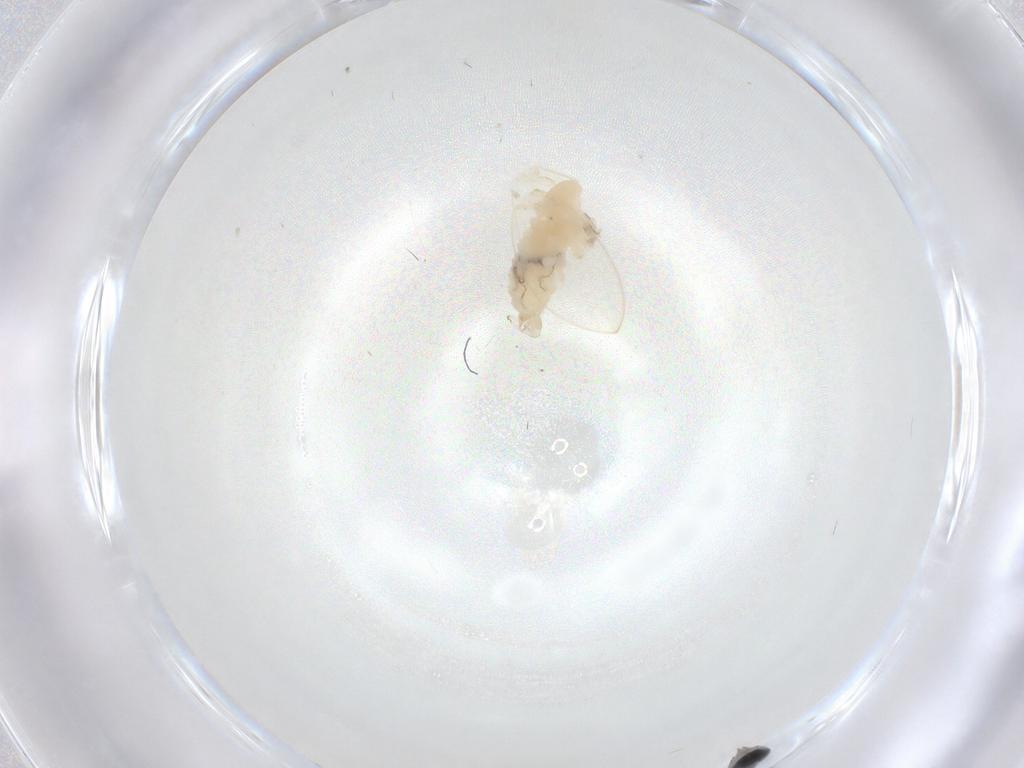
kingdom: Animalia
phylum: Arthropoda
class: Insecta
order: Diptera
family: Psychodidae
